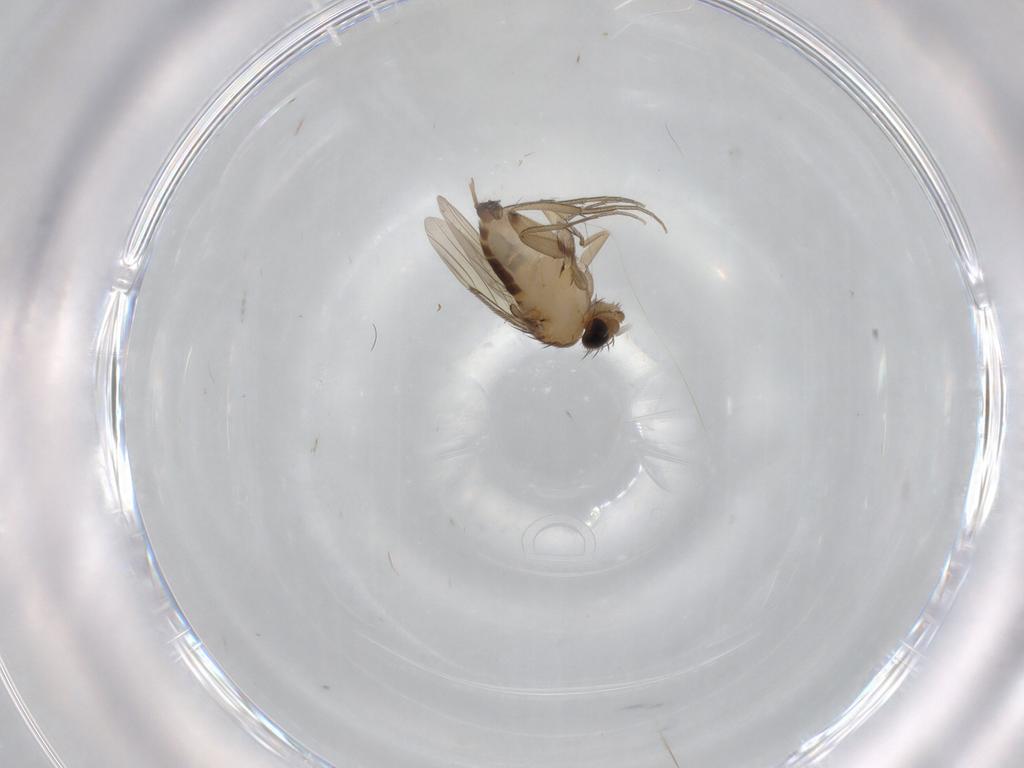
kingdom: Animalia
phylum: Arthropoda
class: Insecta
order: Diptera
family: Phoridae
